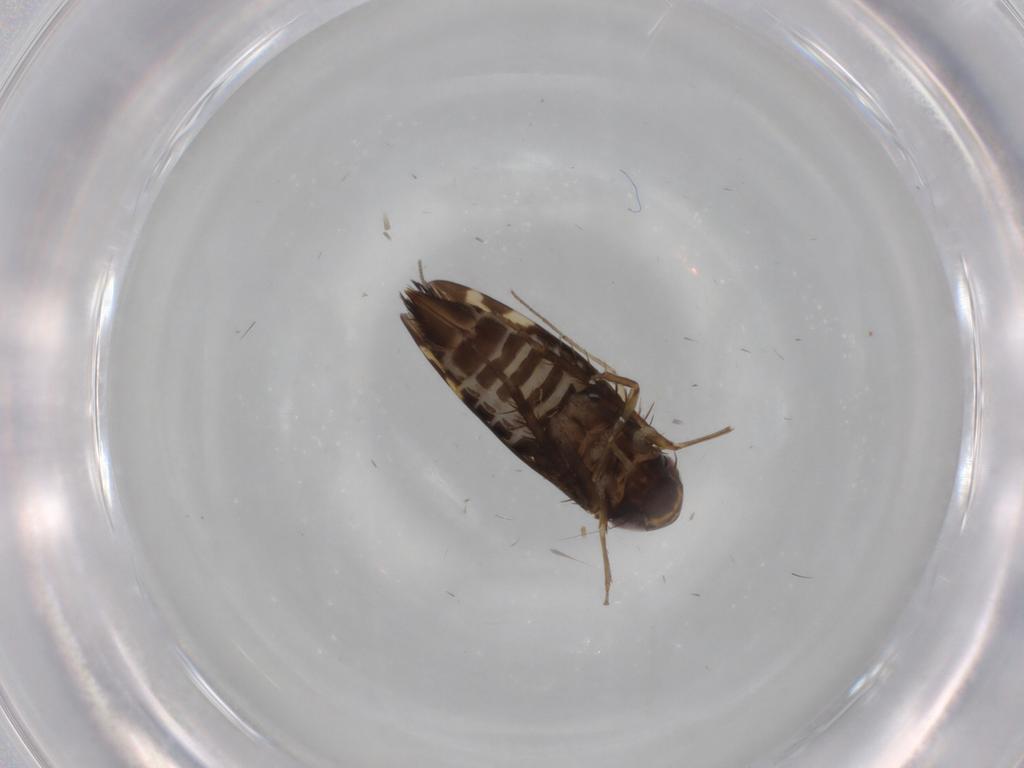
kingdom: Animalia
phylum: Arthropoda
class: Insecta
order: Hemiptera
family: Cicadellidae
